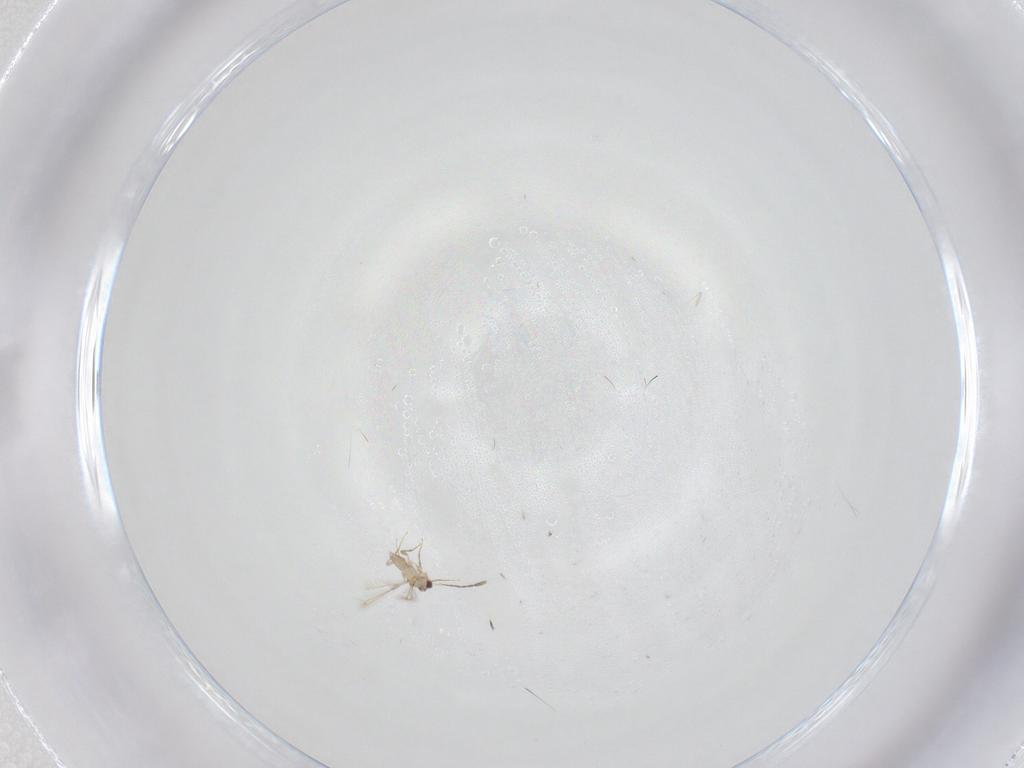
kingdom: Animalia
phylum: Arthropoda
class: Insecta
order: Hymenoptera
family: Mymaridae
